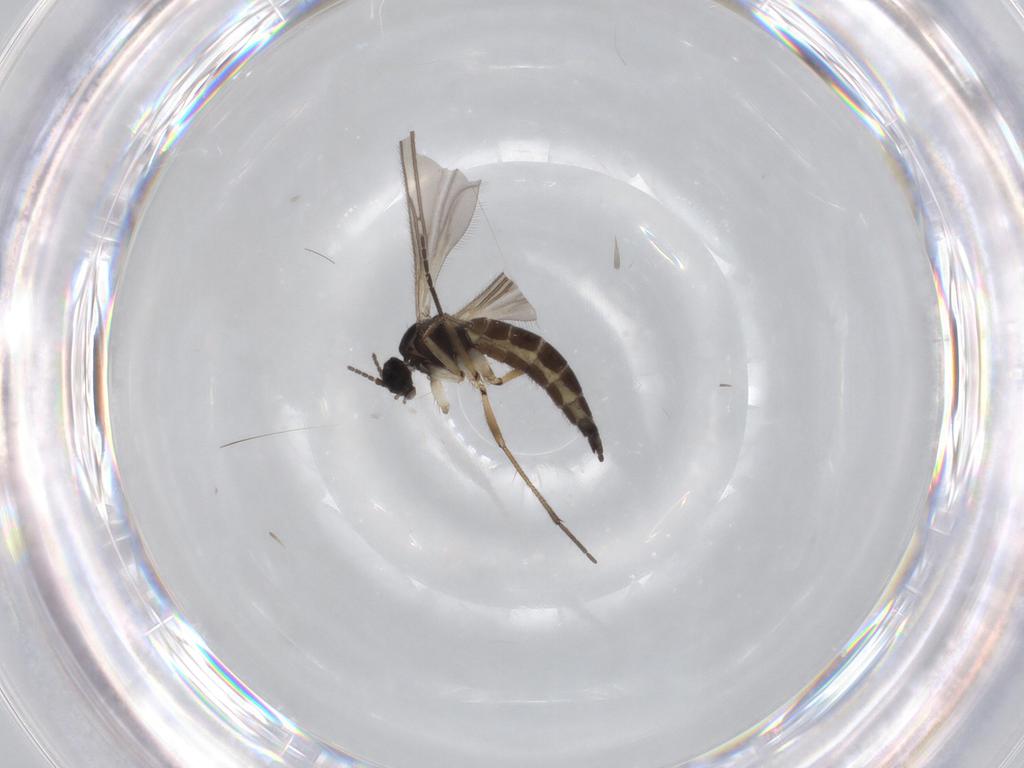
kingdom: Animalia
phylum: Arthropoda
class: Insecta
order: Diptera
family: Sciaridae
